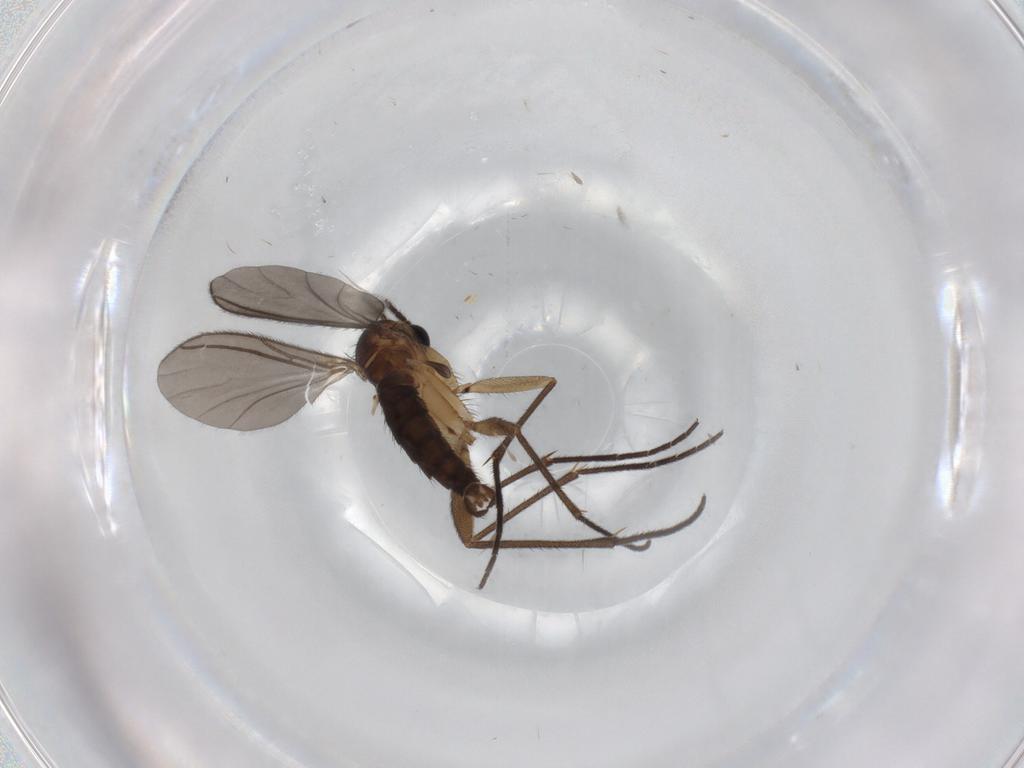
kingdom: Animalia
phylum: Arthropoda
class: Insecta
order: Diptera
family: Sciaridae
